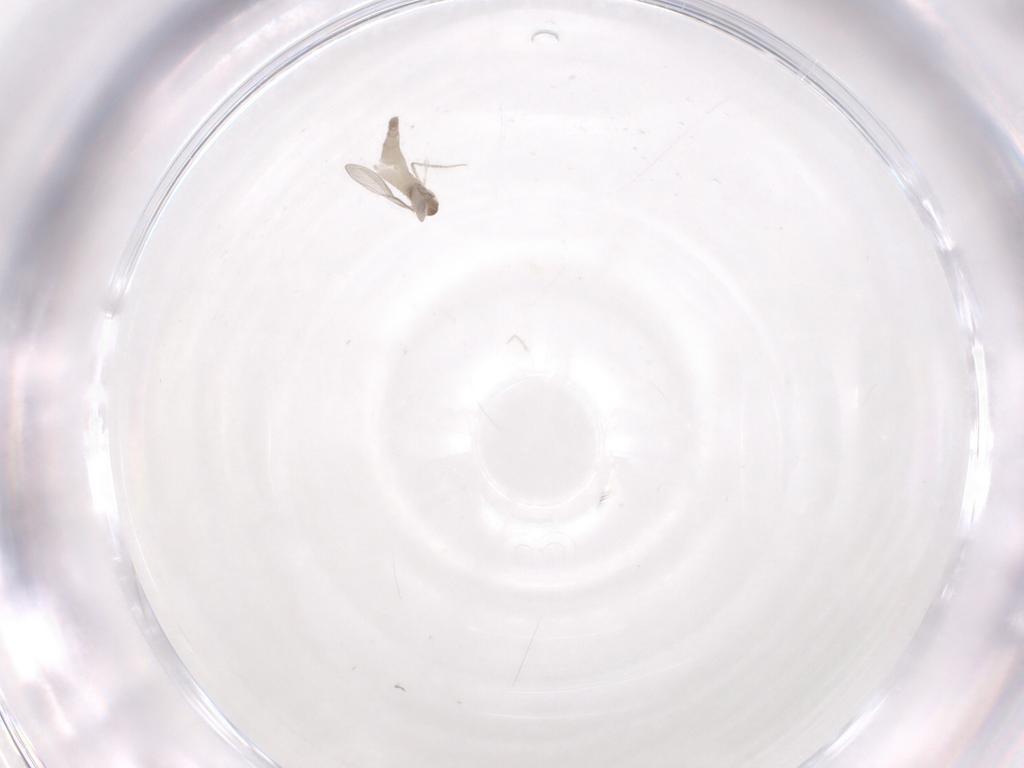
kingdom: Animalia
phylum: Arthropoda
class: Insecta
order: Diptera
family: Cecidomyiidae
